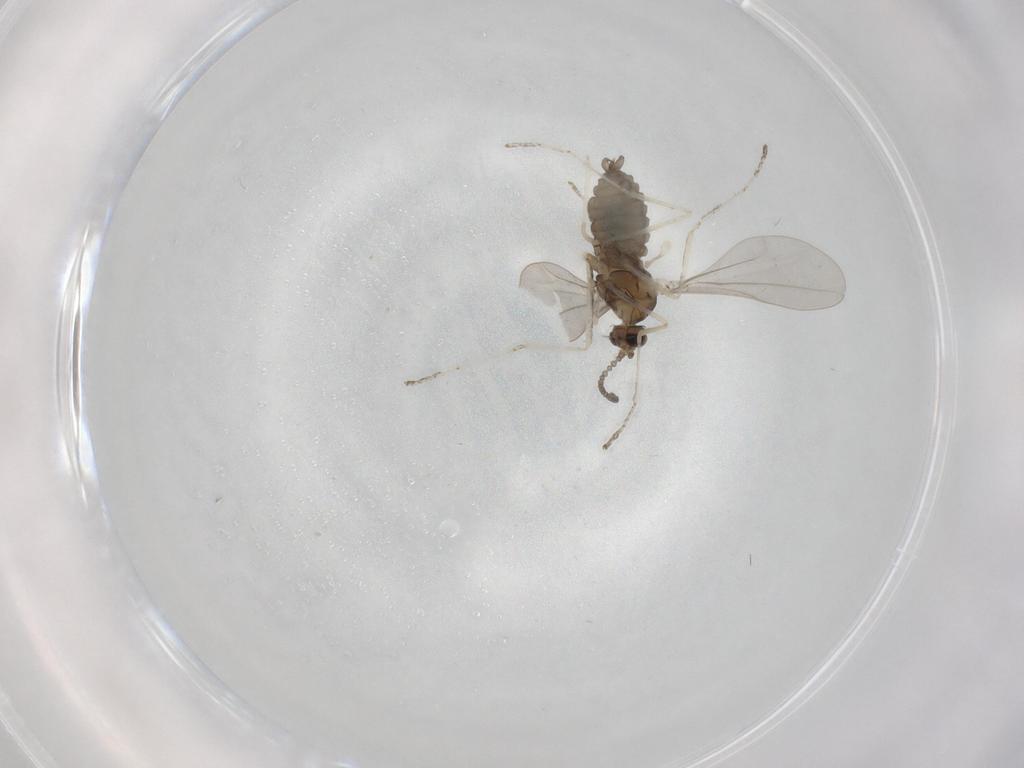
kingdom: Animalia
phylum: Arthropoda
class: Insecta
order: Diptera
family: Cecidomyiidae
